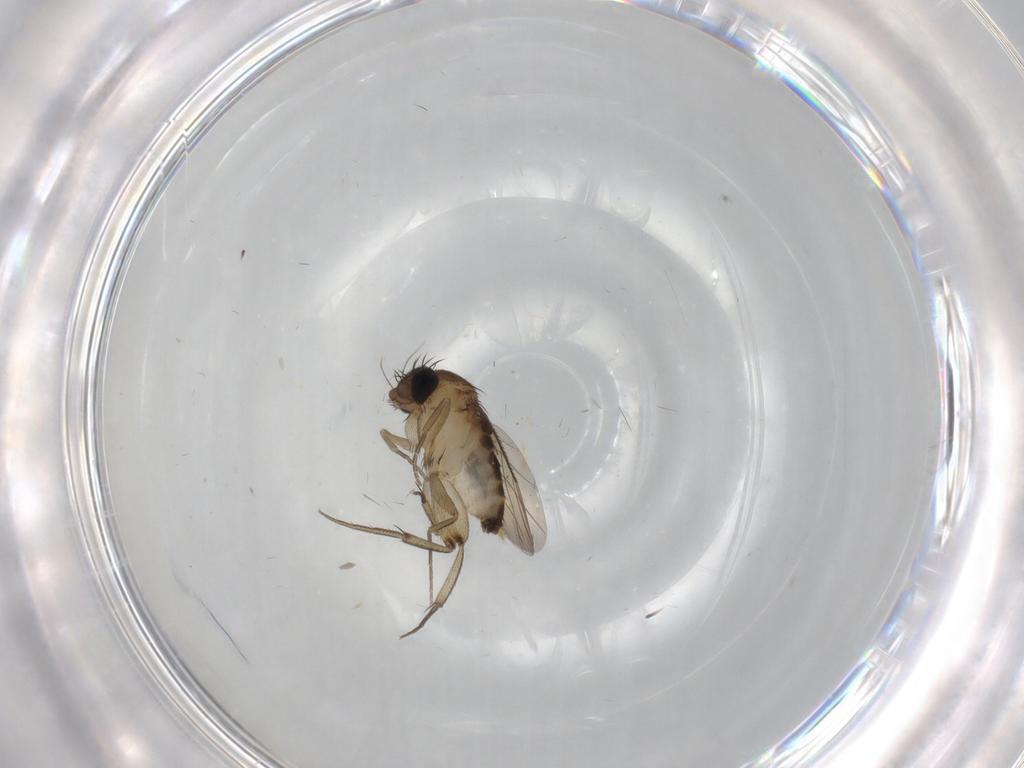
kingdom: Animalia
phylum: Arthropoda
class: Insecta
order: Diptera
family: Phoridae
